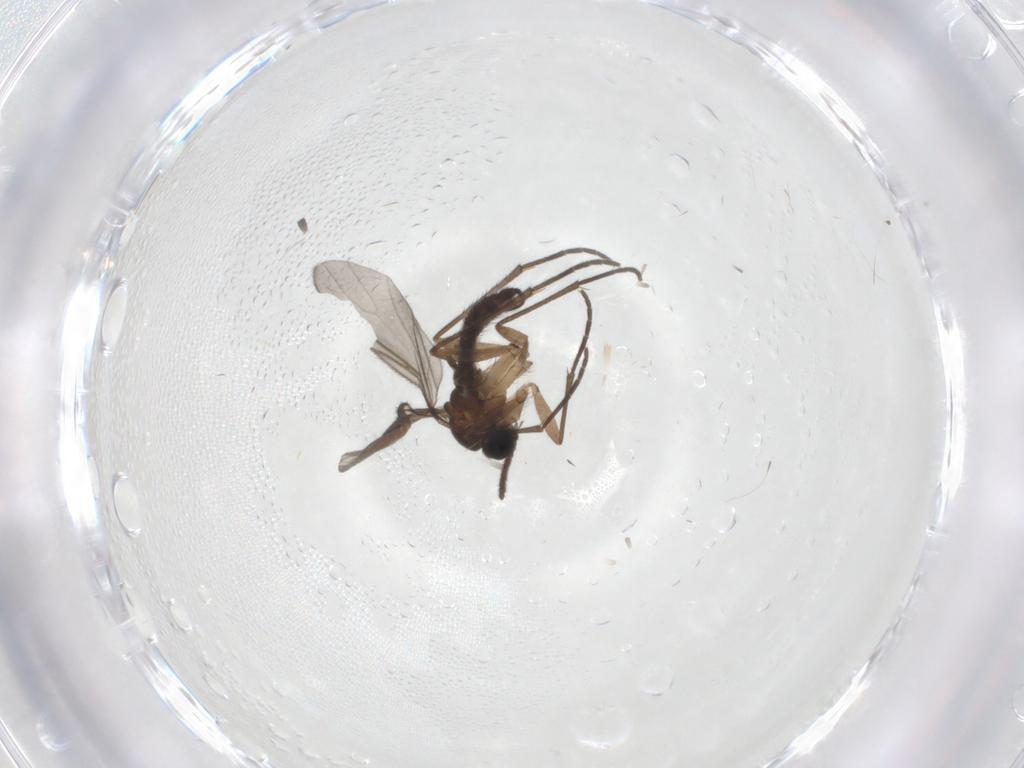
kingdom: Animalia
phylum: Arthropoda
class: Insecta
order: Diptera
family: Sciaridae
